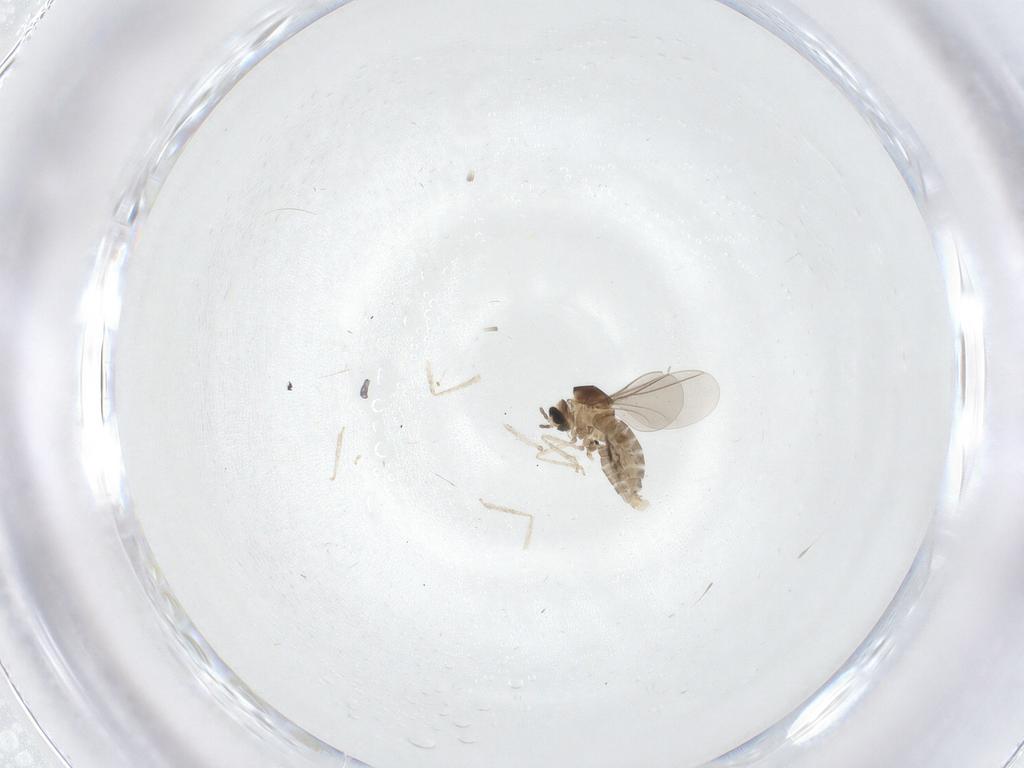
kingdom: Animalia
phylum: Arthropoda
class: Insecta
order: Diptera
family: Cecidomyiidae
